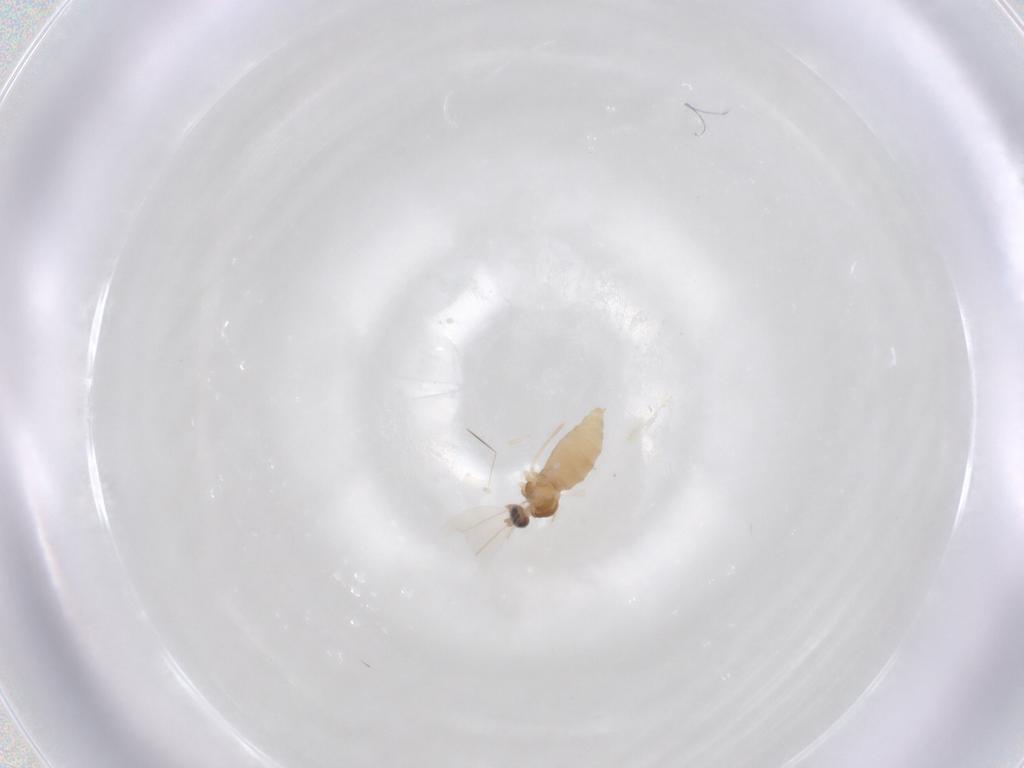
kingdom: Animalia
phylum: Arthropoda
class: Insecta
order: Diptera
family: Cecidomyiidae
